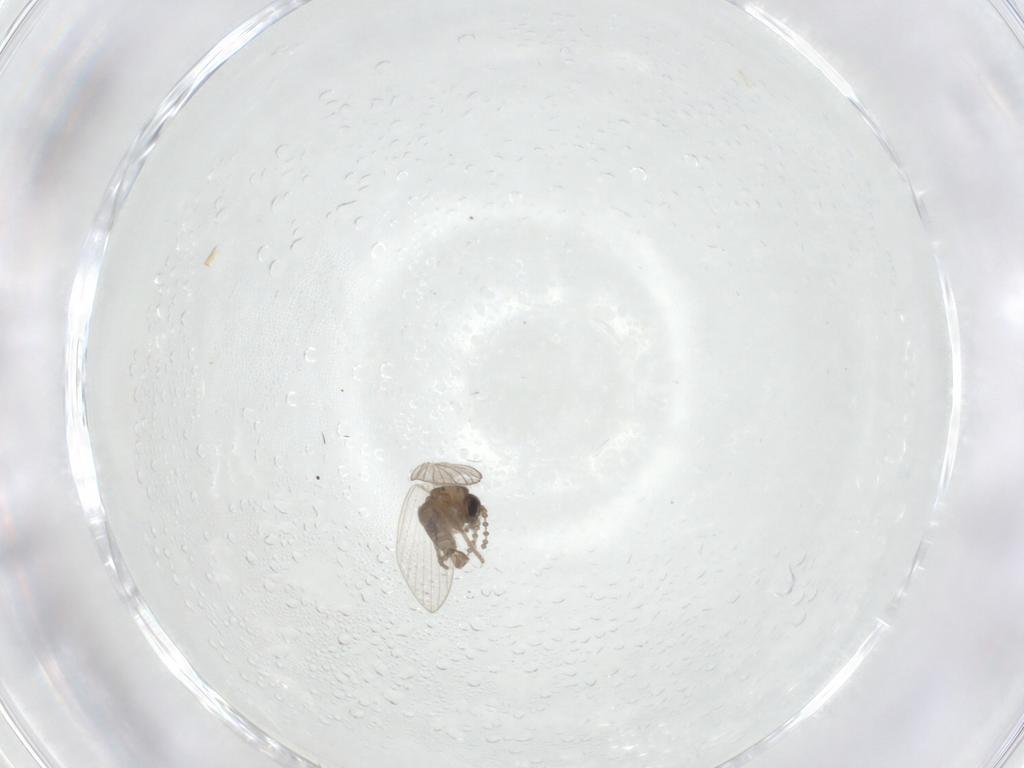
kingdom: Animalia
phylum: Arthropoda
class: Insecta
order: Diptera
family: Psychodidae
